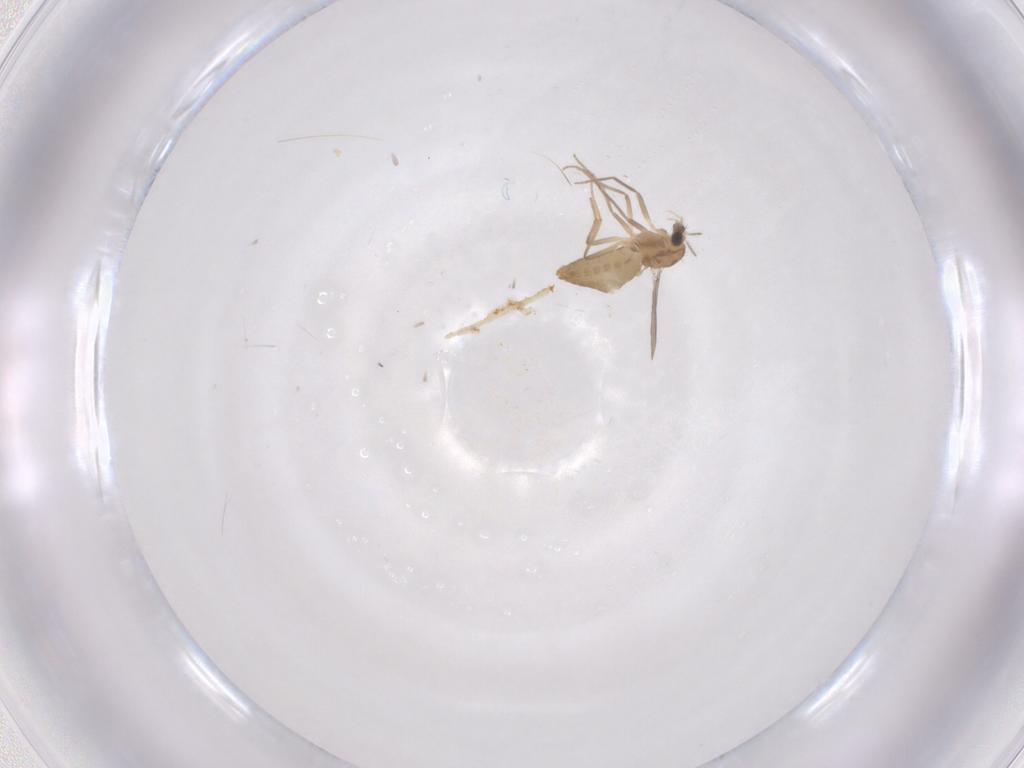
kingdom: Animalia
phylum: Arthropoda
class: Insecta
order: Diptera
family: Chironomidae
